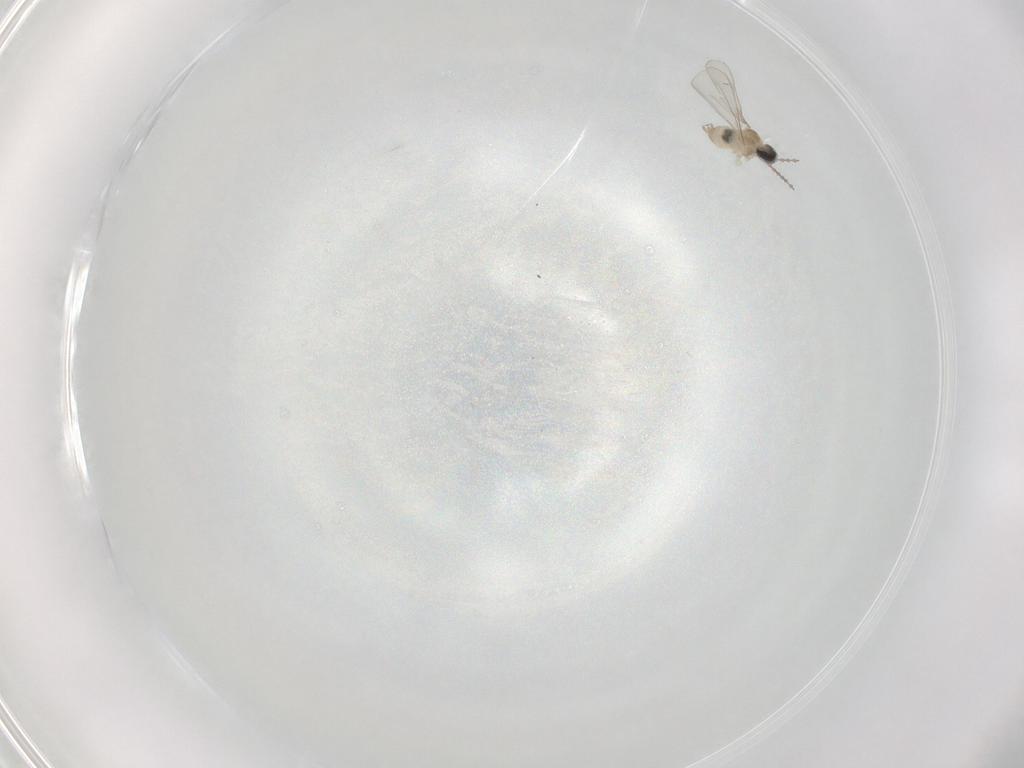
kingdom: Animalia
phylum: Arthropoda
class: Insecta
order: Diptera
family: Cecidomyiidae
